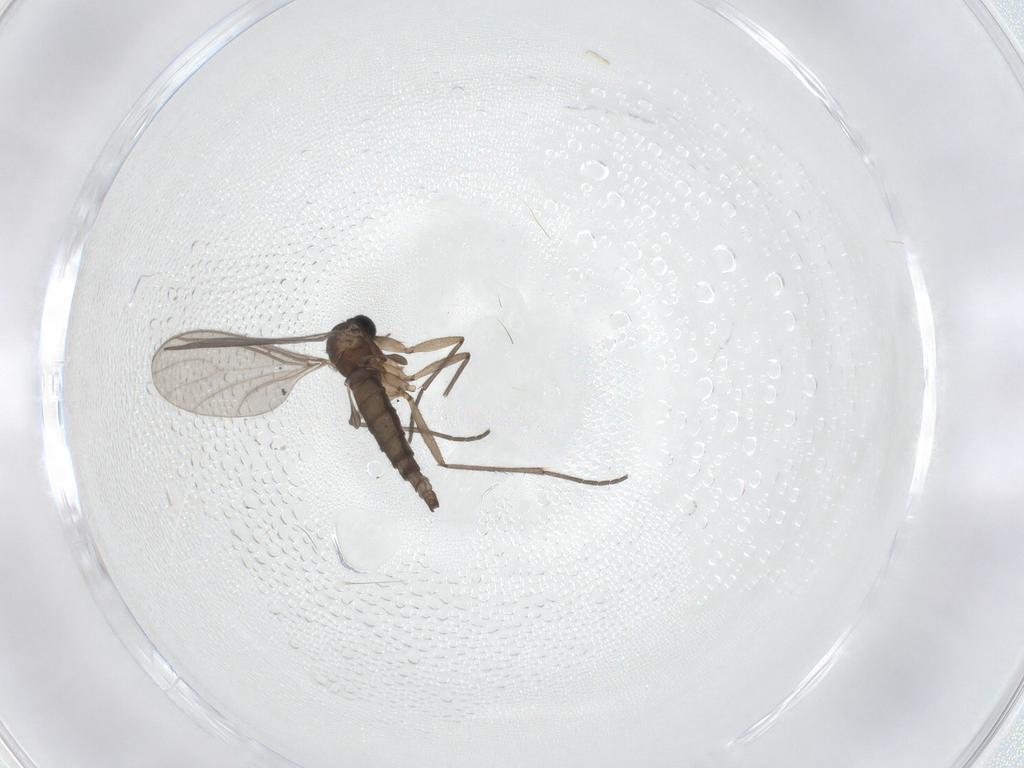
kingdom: Animalia
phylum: Arthropoda
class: Insecta
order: Diptera
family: Sciaridae
